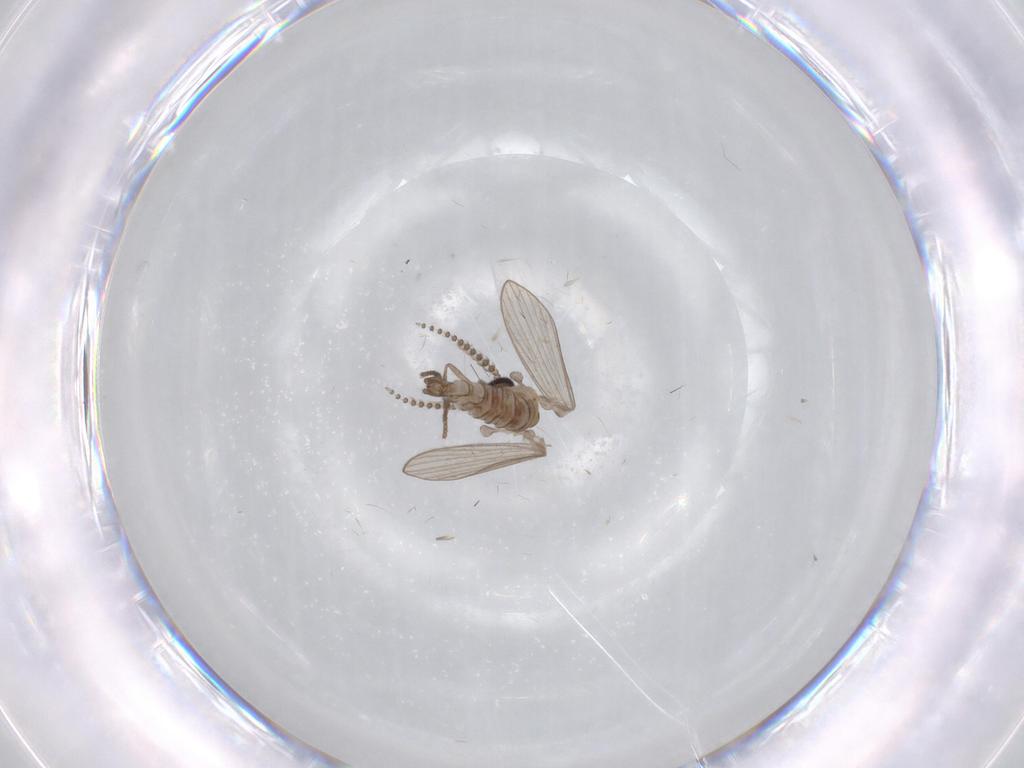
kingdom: Animalia
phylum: Arthropoda
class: Insecta
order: Diptera
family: Psychodidae
